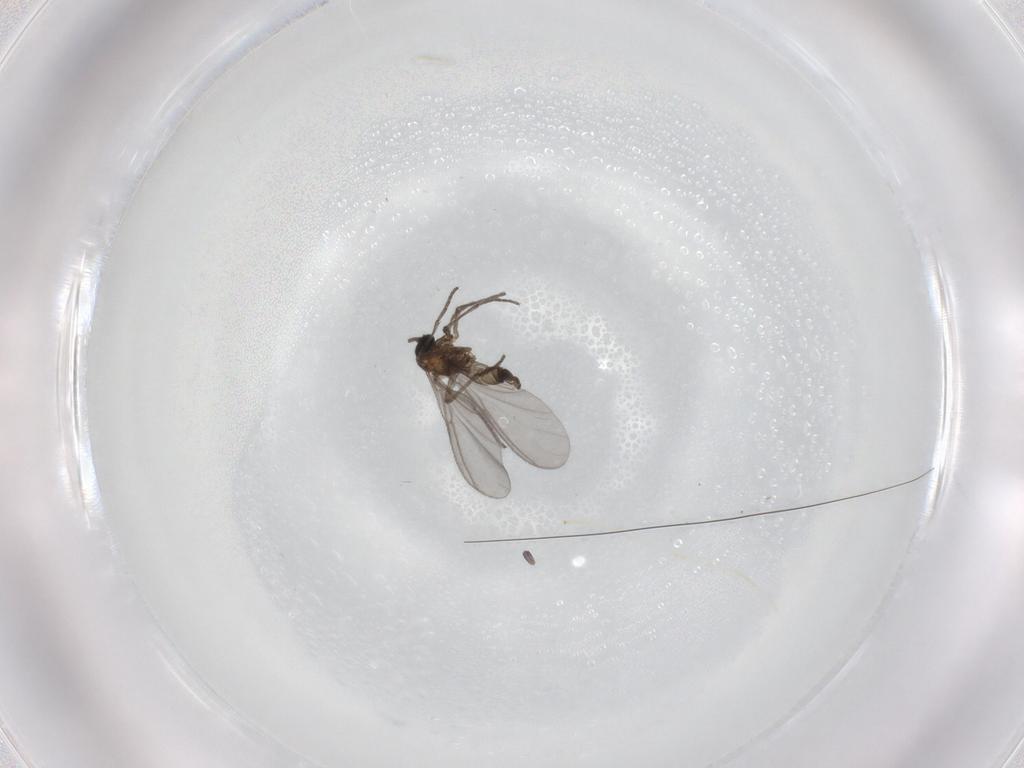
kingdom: Animalia
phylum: Arthropoda
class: Insecta
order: Diptera
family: Sciaridae
